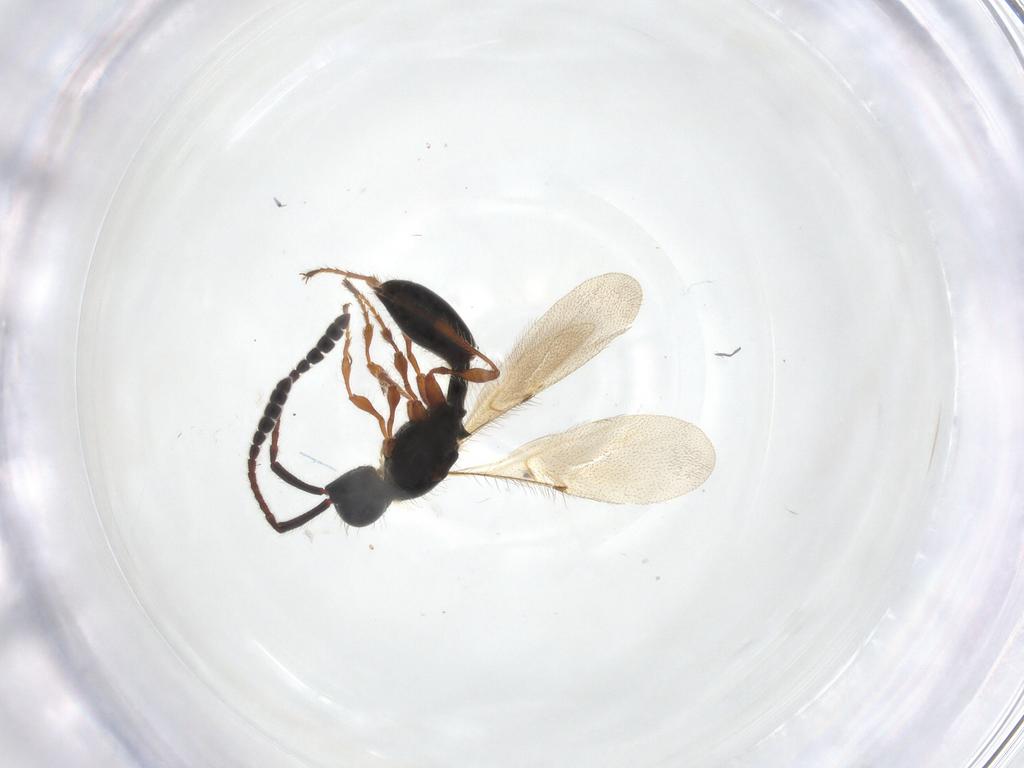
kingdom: Animalia
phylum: Arthropoda
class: Insecta
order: Hymenoptera
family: Diapriidae
